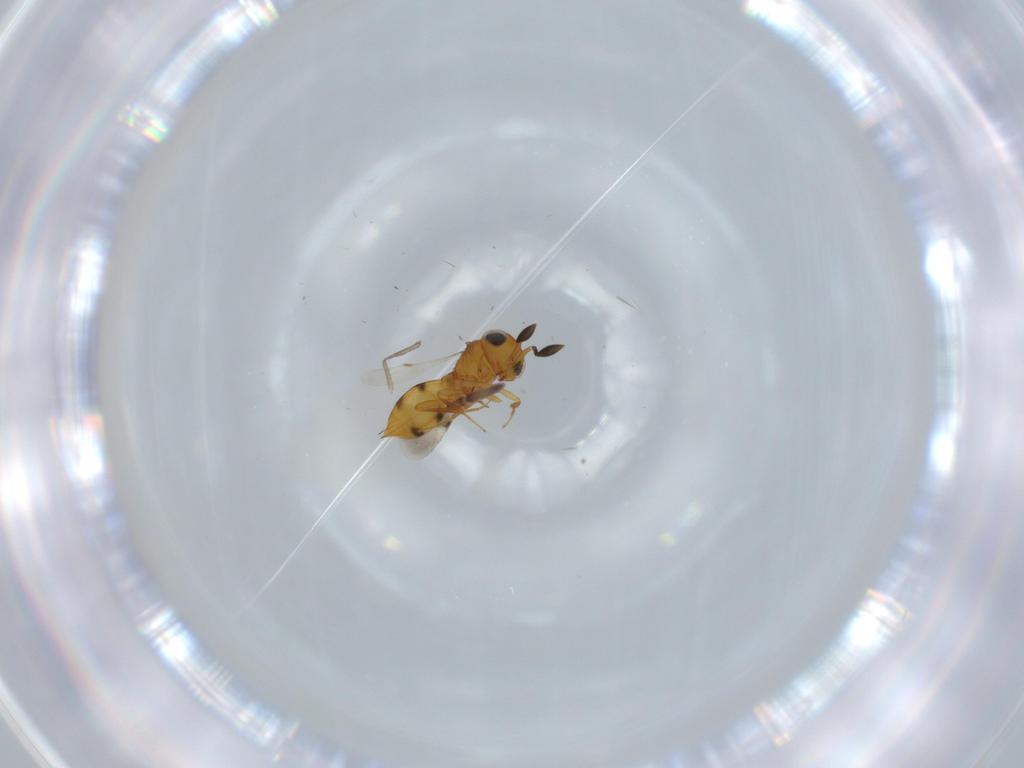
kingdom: Animalia
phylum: Arthropoda
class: Insecta
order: Hymenoptera
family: Scelionidae
